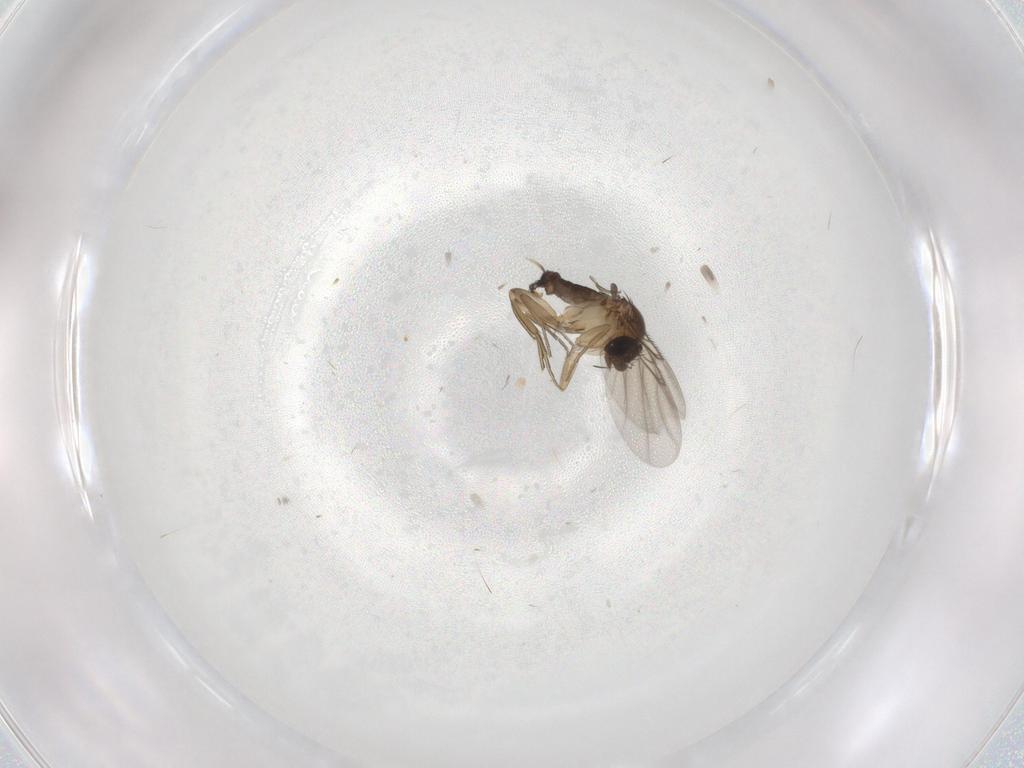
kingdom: Animalia
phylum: Arthropoda
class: Insecta
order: Diptera
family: Phoridae
